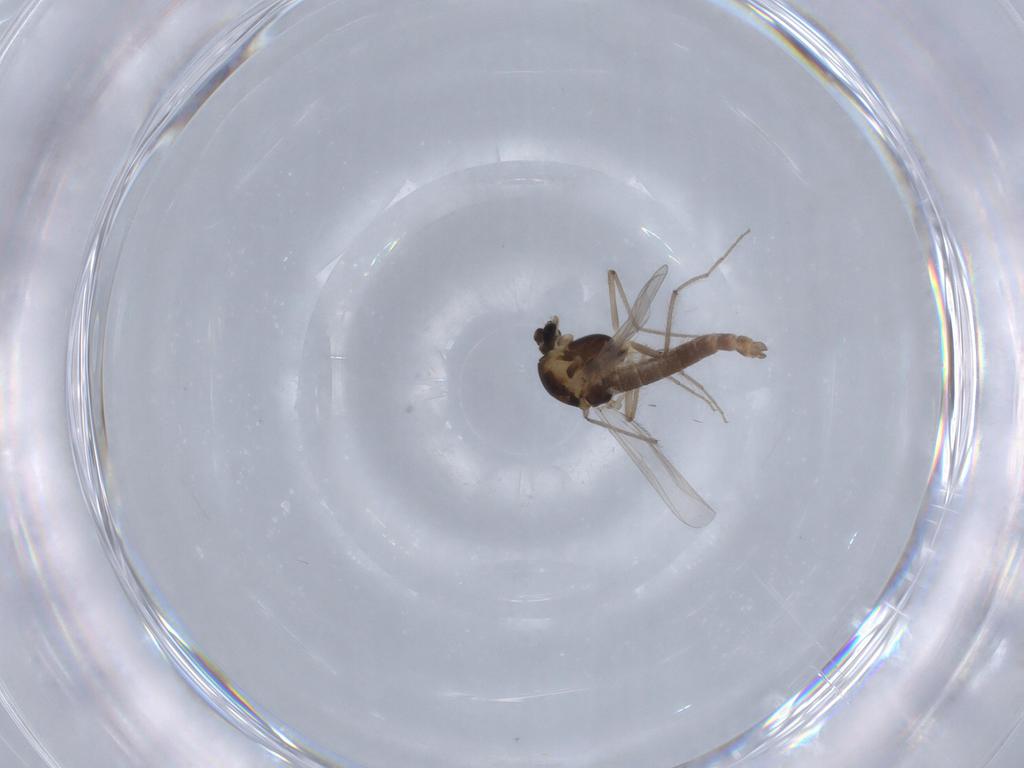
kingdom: Animalia
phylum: Arthropoda
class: Insecta
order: Diptera
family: Chironomidae
